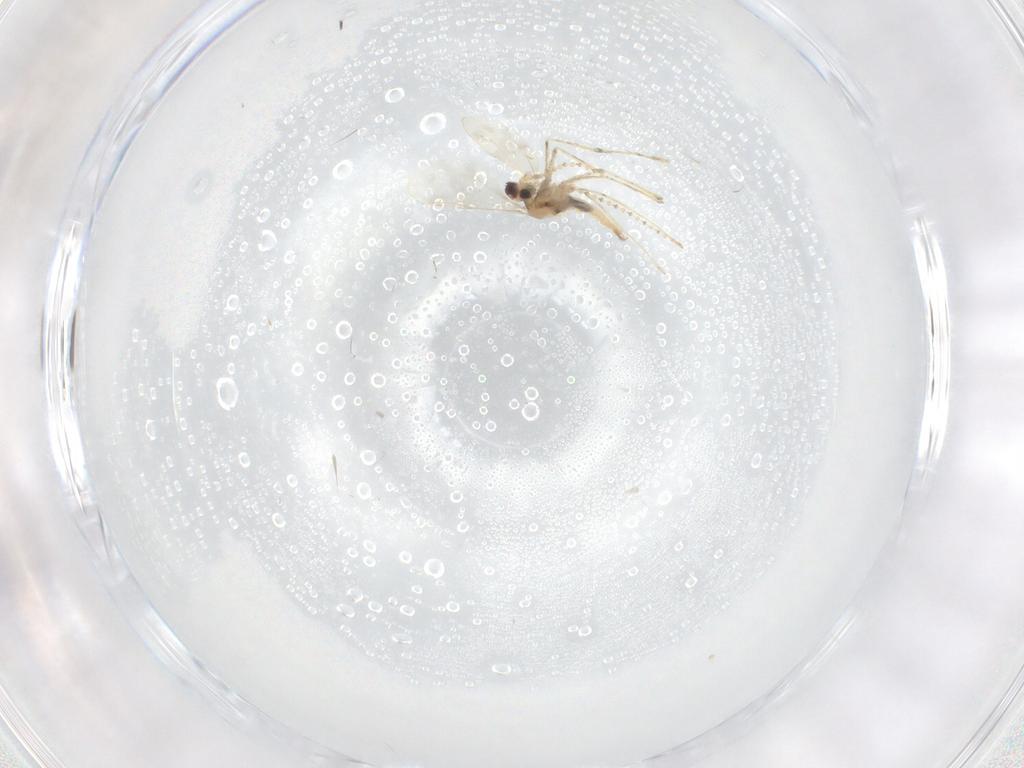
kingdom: Animalia
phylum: Arthropoda
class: Insecta
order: Diptera
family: Cecidomyiidae
